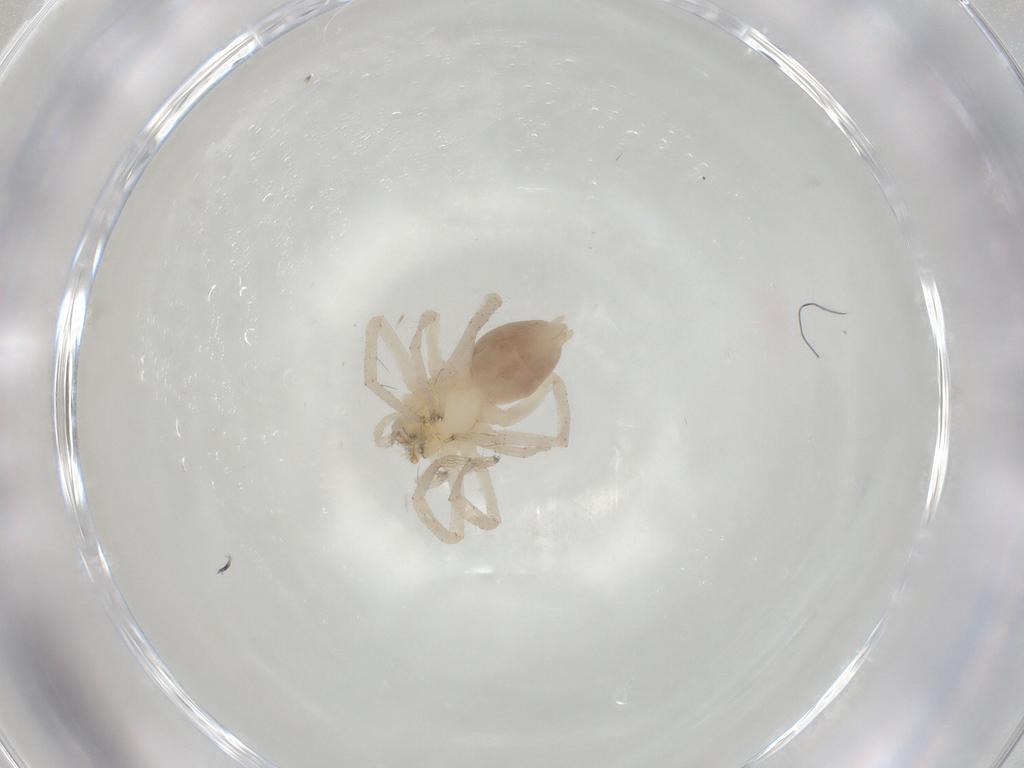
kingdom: Animalia
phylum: Arthropoda
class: Arachnida
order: Araneae
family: Anyphaenidae
